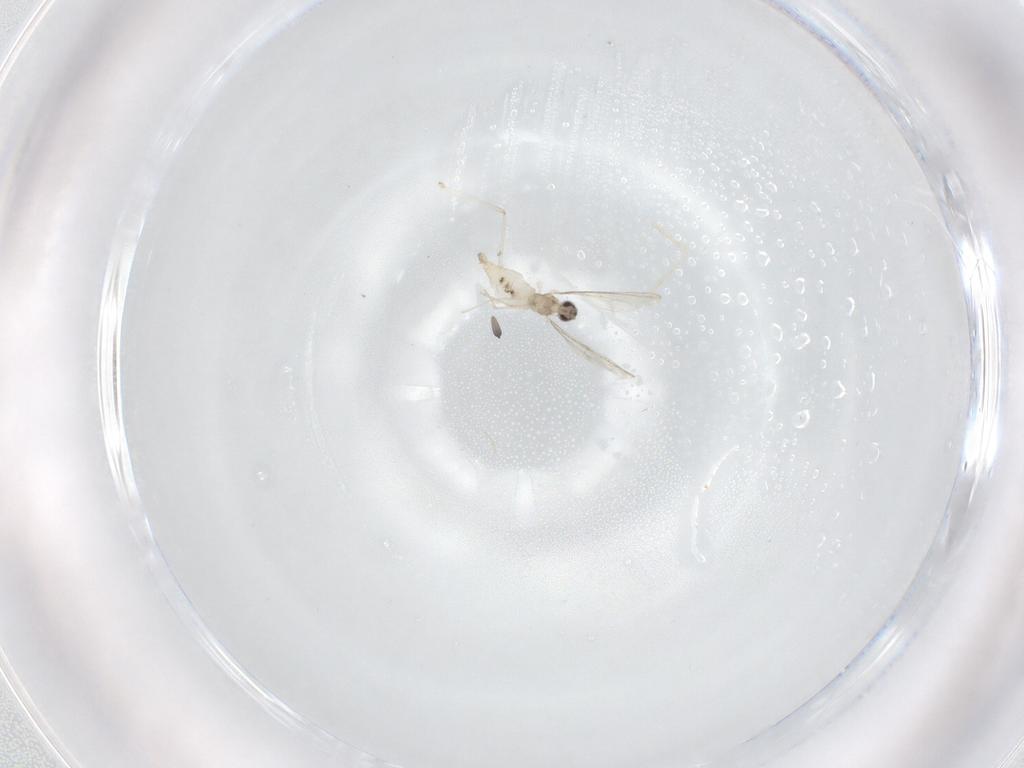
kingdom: Animalia
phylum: Arthropoda
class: Insecta
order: Diptera
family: Cecidomyiidae
